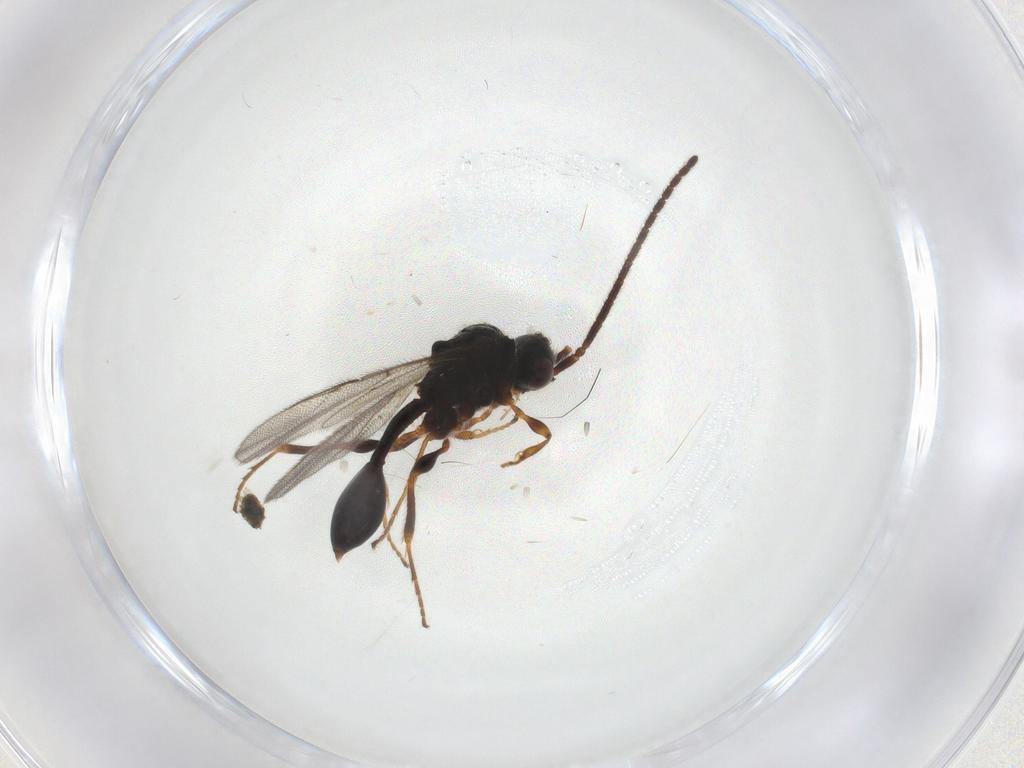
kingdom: Animalia
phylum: Arthropoda
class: Insecta
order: Hymenoptera
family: Diapriidae
